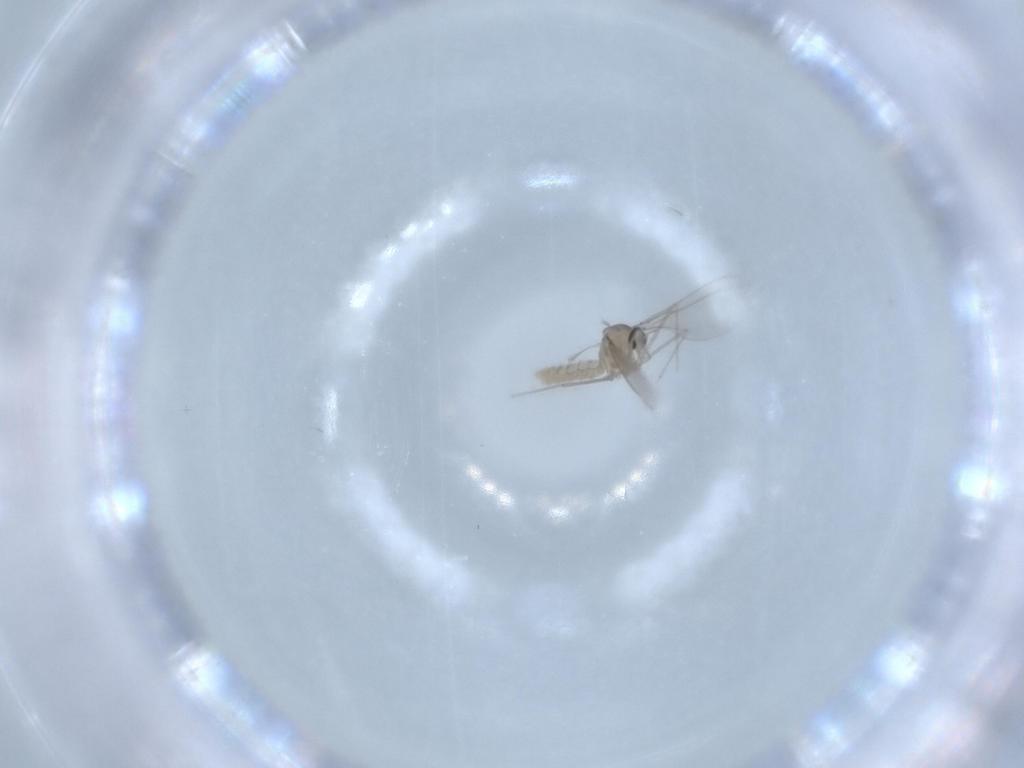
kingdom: Animalia
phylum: Arthropoda
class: Insecta
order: Diptera
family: Cecidomyiidae
